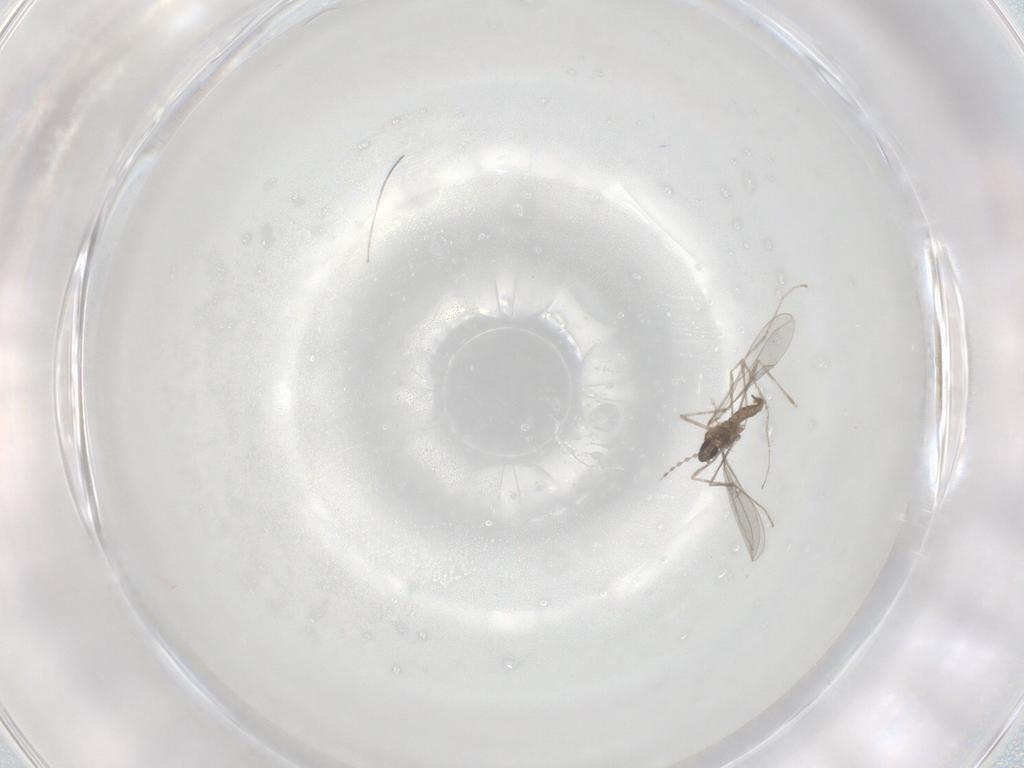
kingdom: Animalia
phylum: Arthropoda
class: Insecta
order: Diptera
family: Cecidomyiidae
